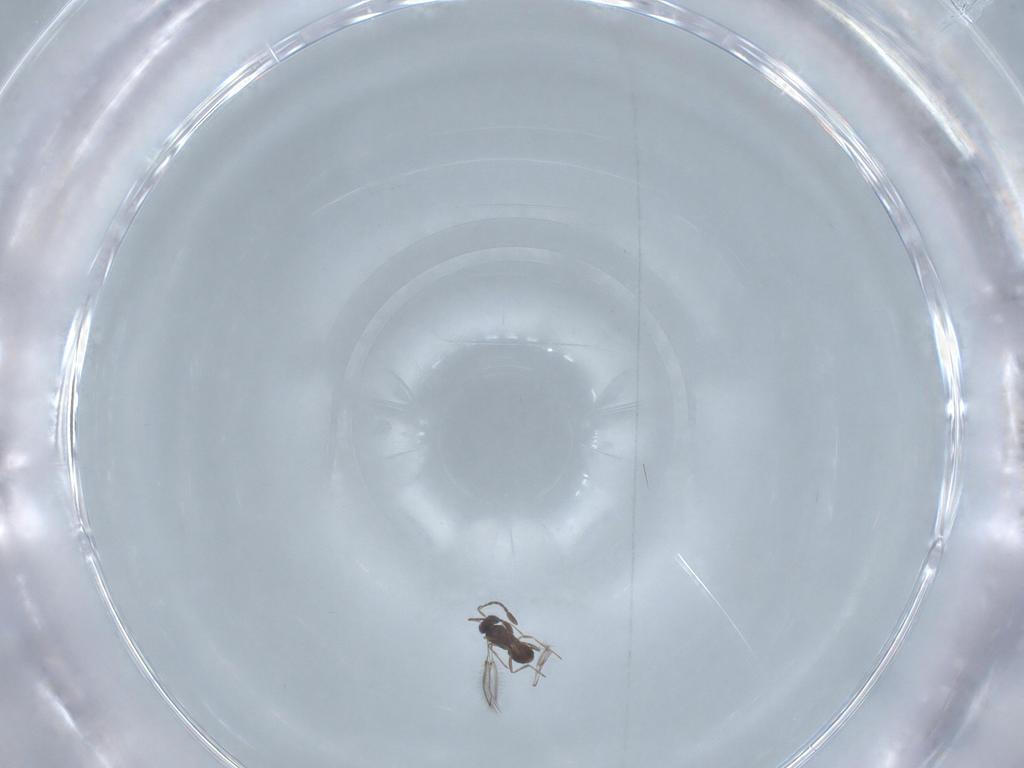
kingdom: Animalia
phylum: Arthropoda
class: Insecta
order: Hymenoptera
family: Mymaridae
